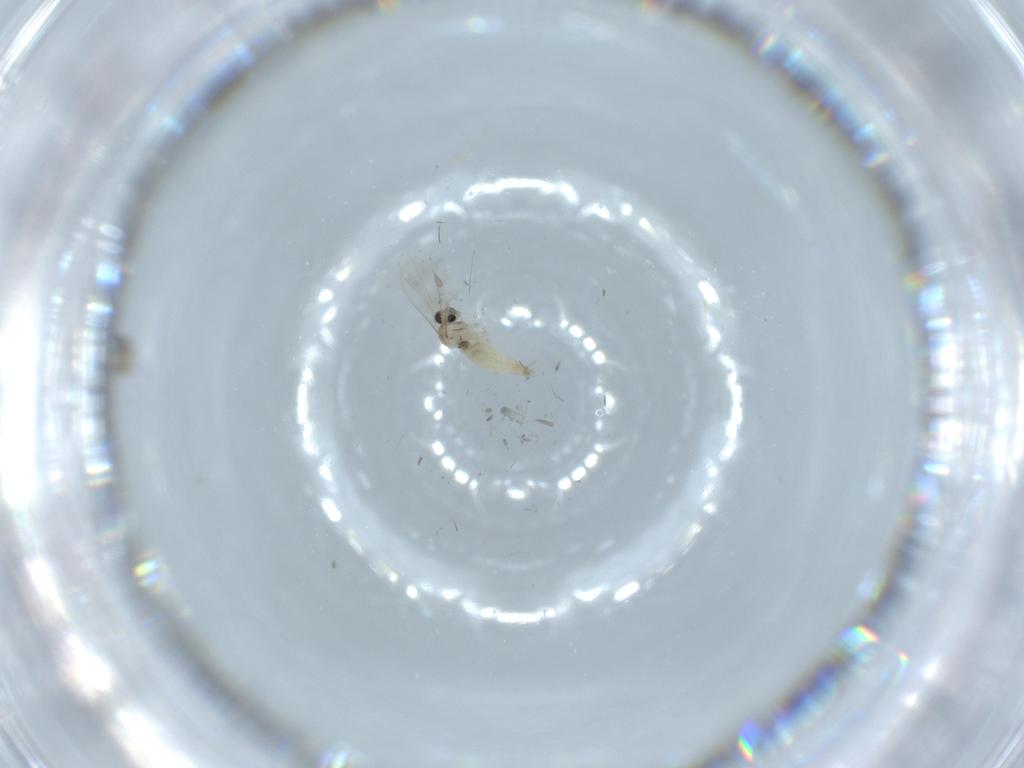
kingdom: Animalia
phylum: Arthropoda
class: Insecta
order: Diptera
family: Cecidomyiidae
